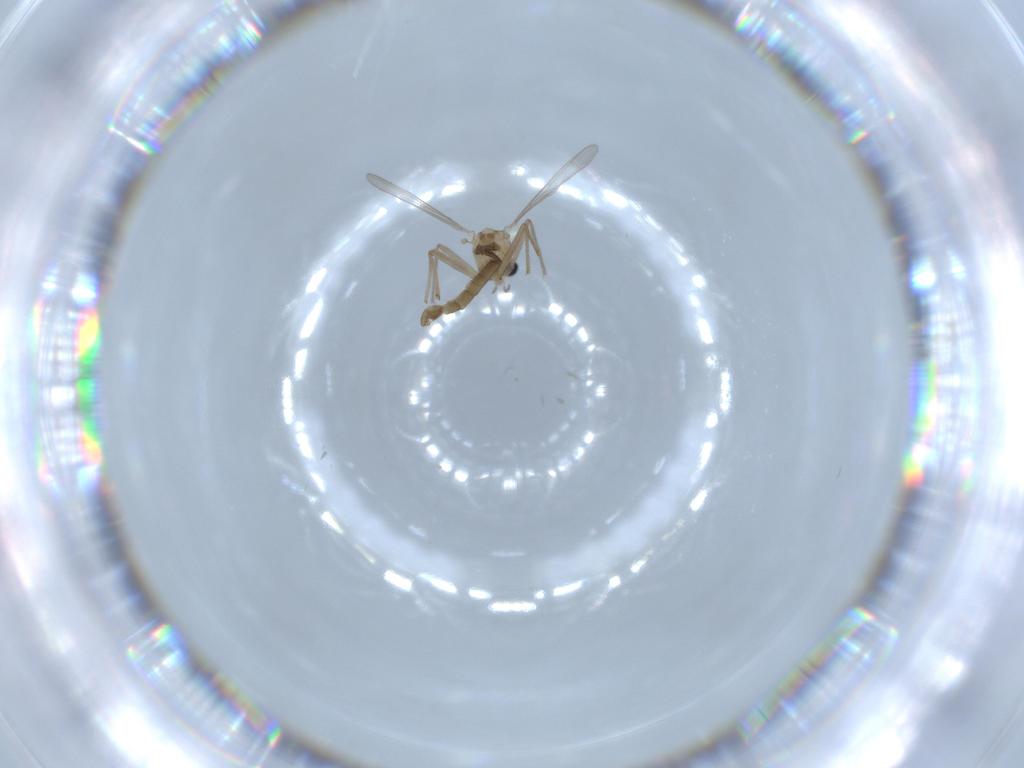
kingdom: Animalia
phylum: Arthropoda
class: Insecta
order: Diptera
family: Chironomidae
